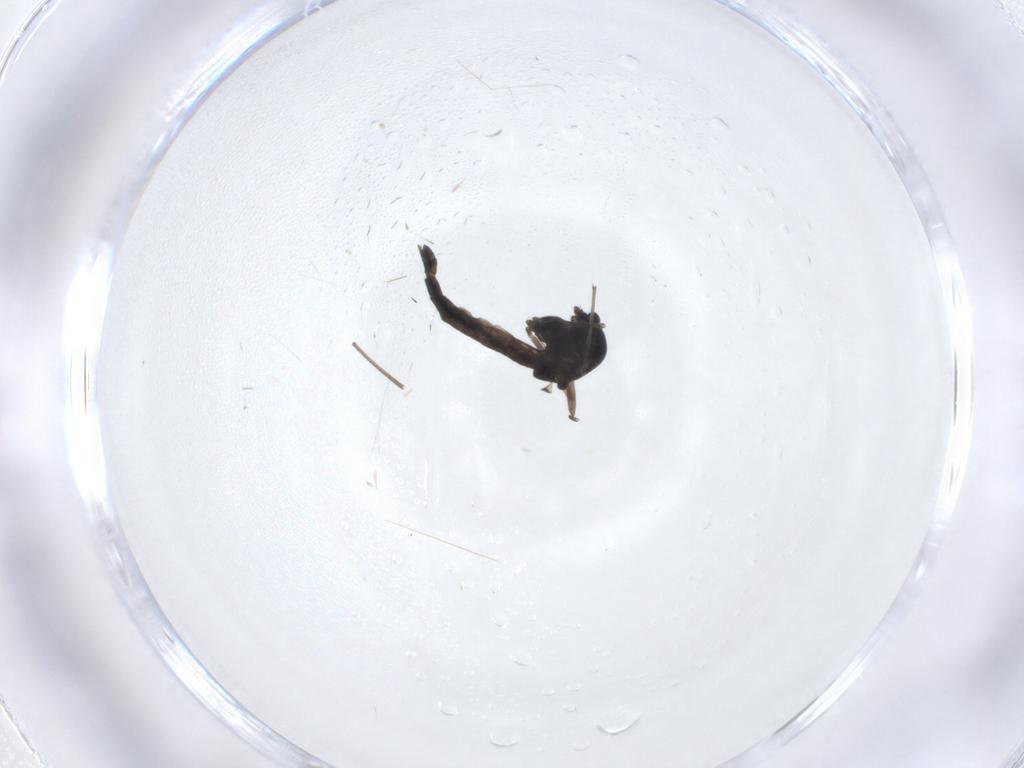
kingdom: Animalia
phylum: Arthropoda
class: Insecta
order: Diptera
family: Chironomidae
